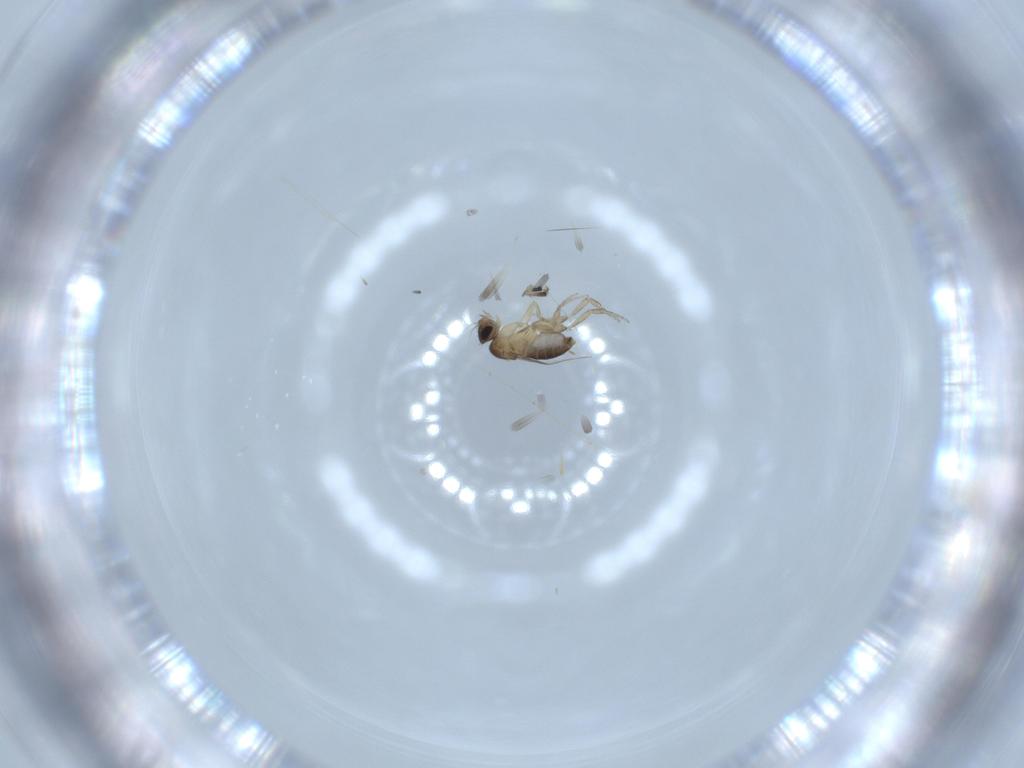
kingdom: Animalia
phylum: Arthropoda
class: Insecta
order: Diptera
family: Phoridae
